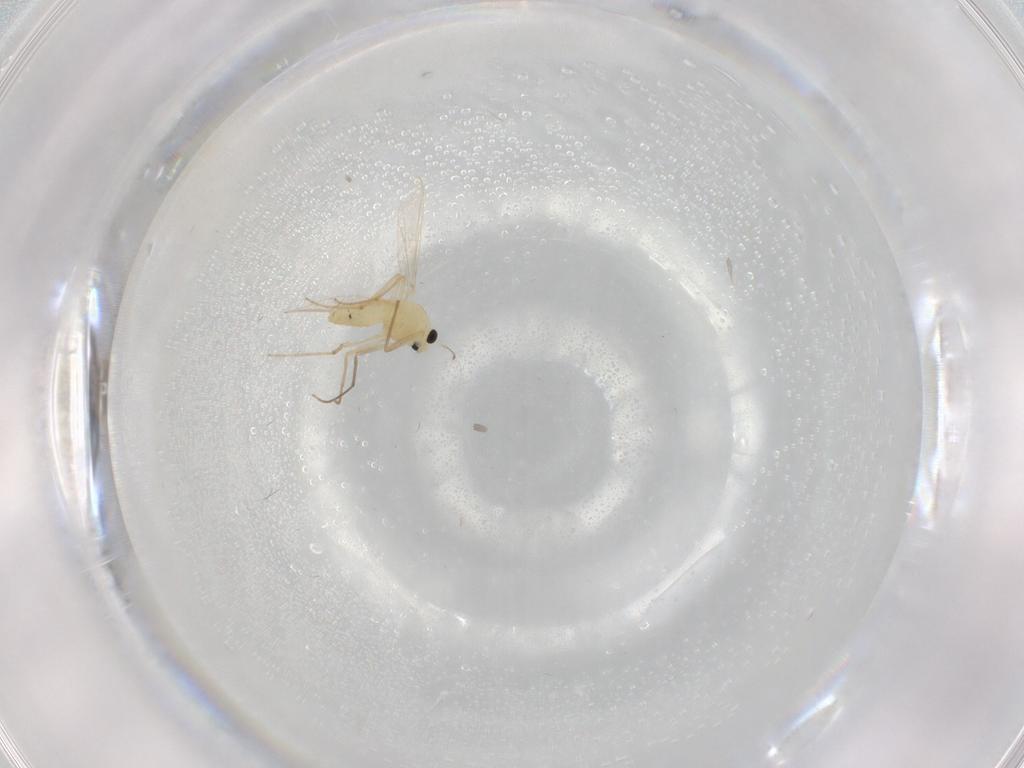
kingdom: Animalia
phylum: Arthropoda
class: Insecta
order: Diptera
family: Chironomidae
